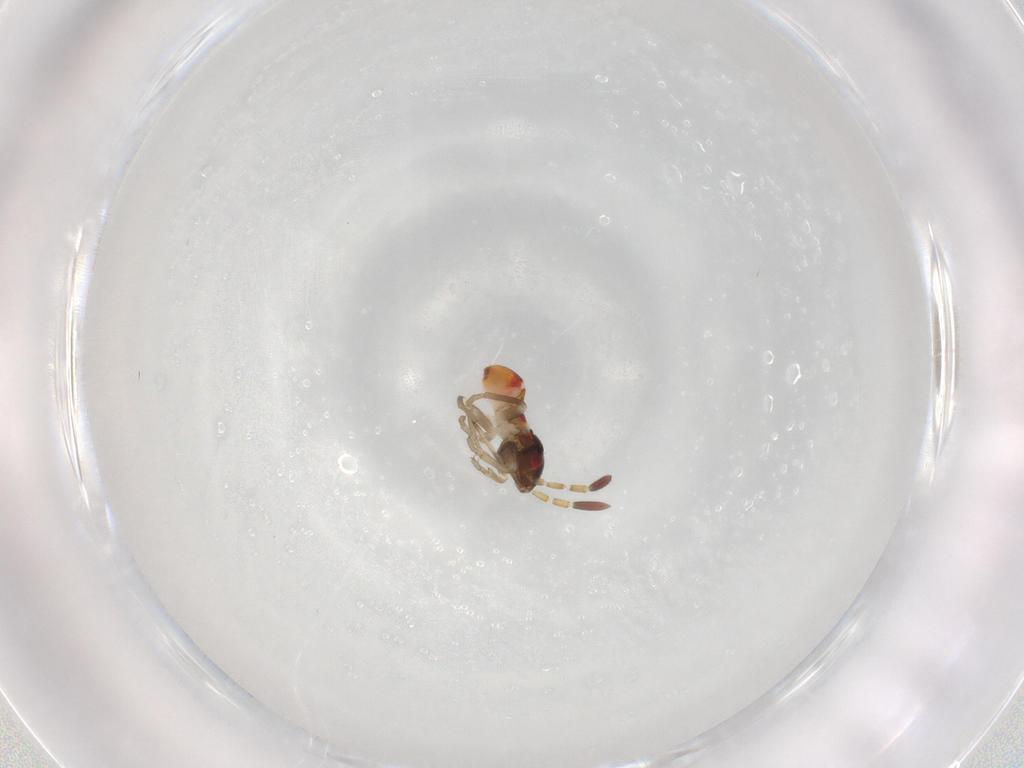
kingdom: Animalia
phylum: Arthropoda
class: Insecta
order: Hemiptera
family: Rhyparochromidae
